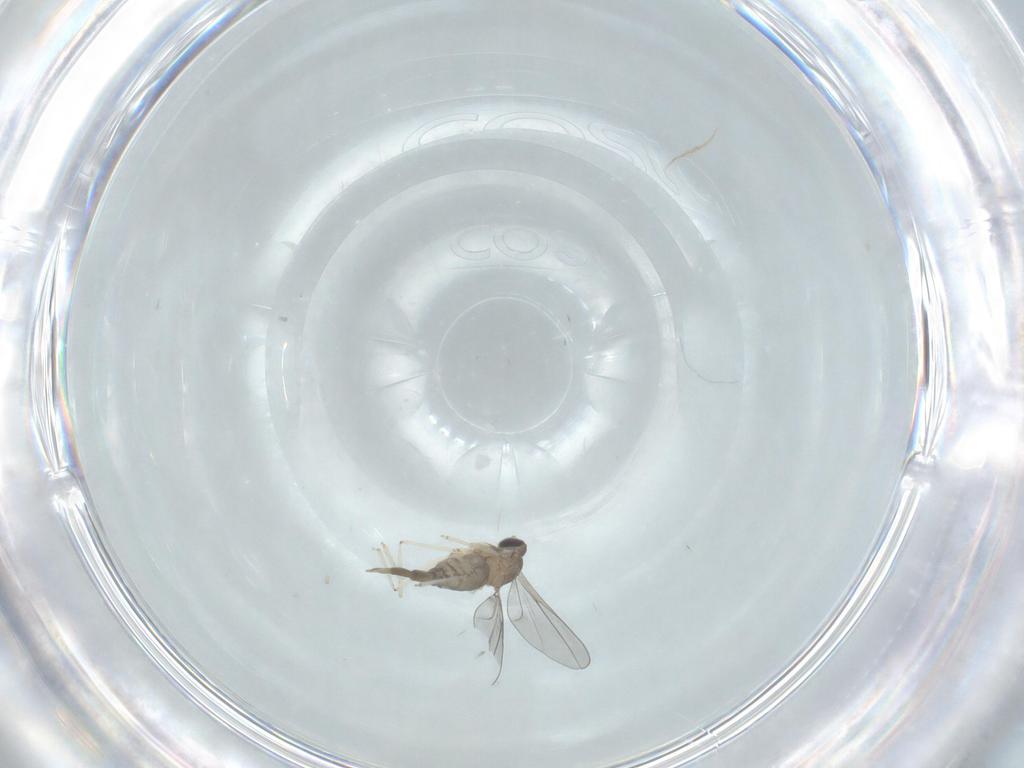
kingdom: Animalia
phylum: Arthropoda
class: Insecta
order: Diptera
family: Cecidomyiidae
